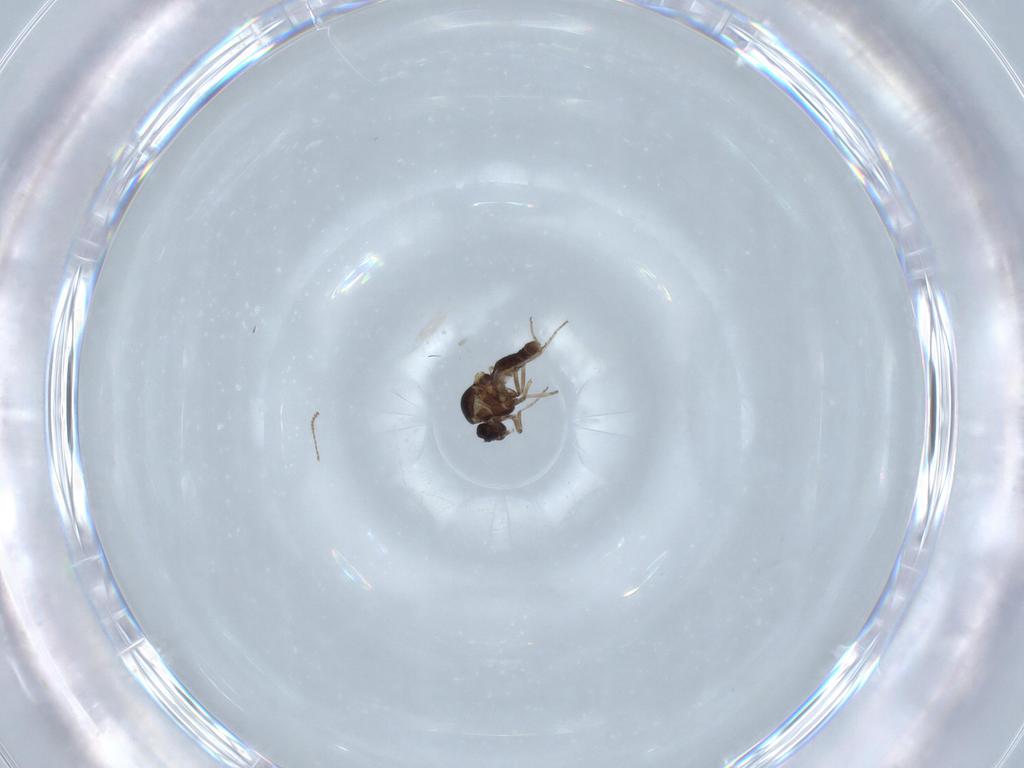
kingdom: Animalia
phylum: Arthropoda
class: Insecta
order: Diptera
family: Ceratopogonidae
